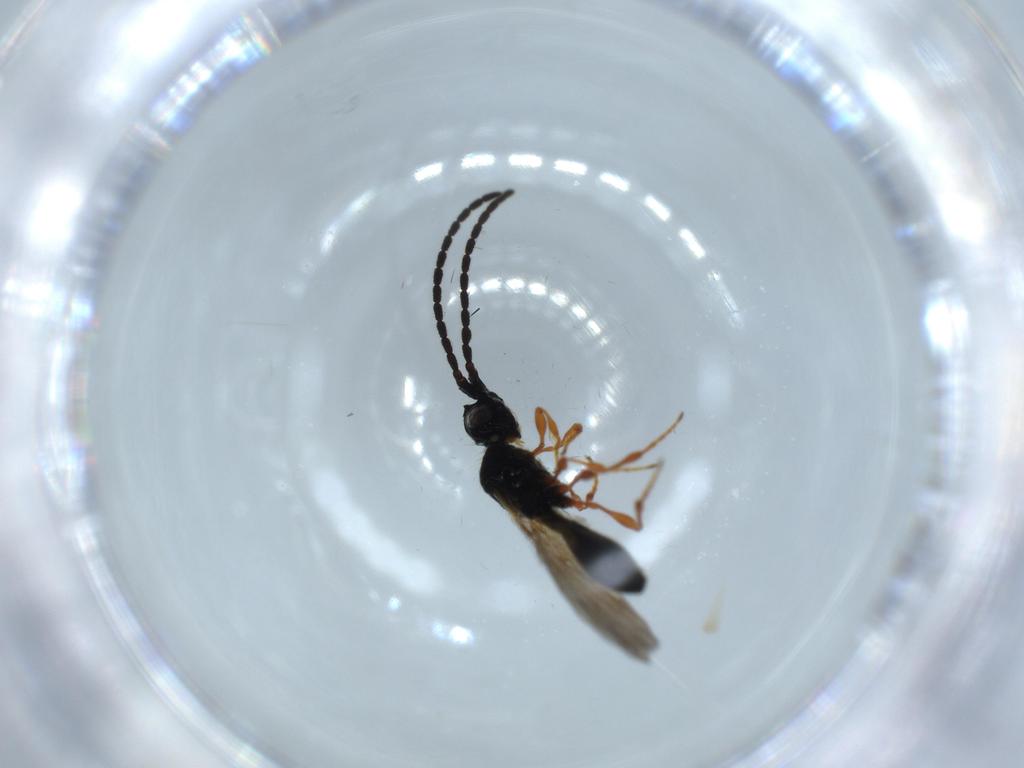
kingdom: Animalia
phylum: Arthropoda
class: Insecta
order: Hymenoptera
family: Diapriidae
